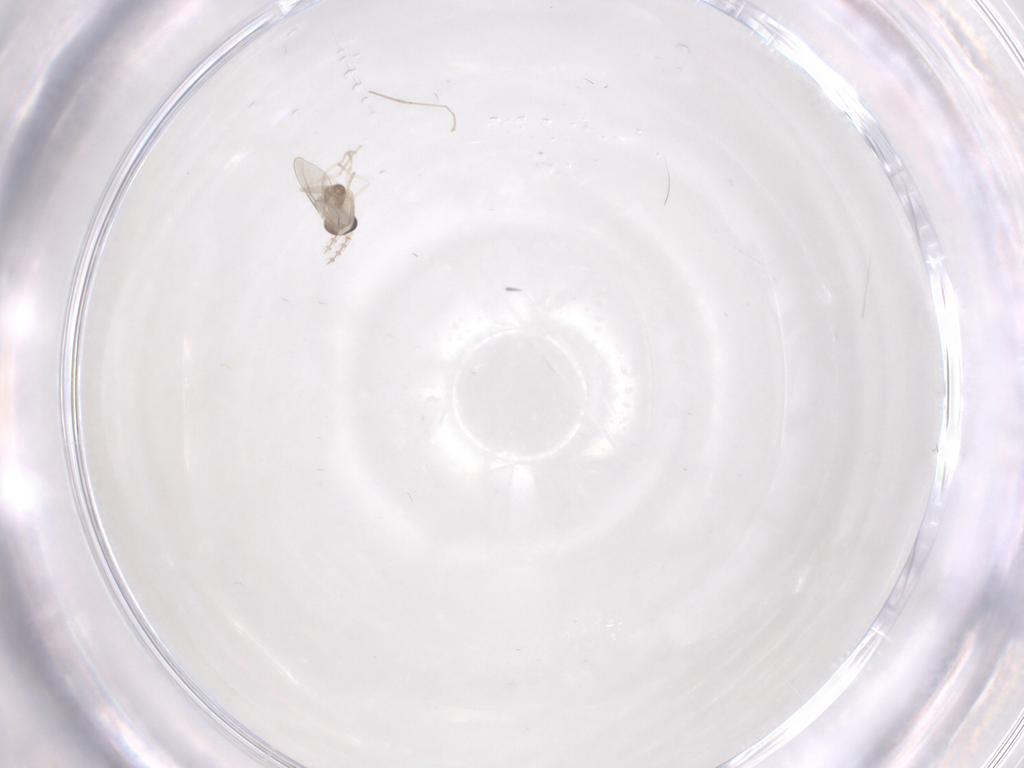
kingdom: Animalia
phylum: Arthropoda
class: Insecta
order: Diptera
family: Cecidomyiidae
